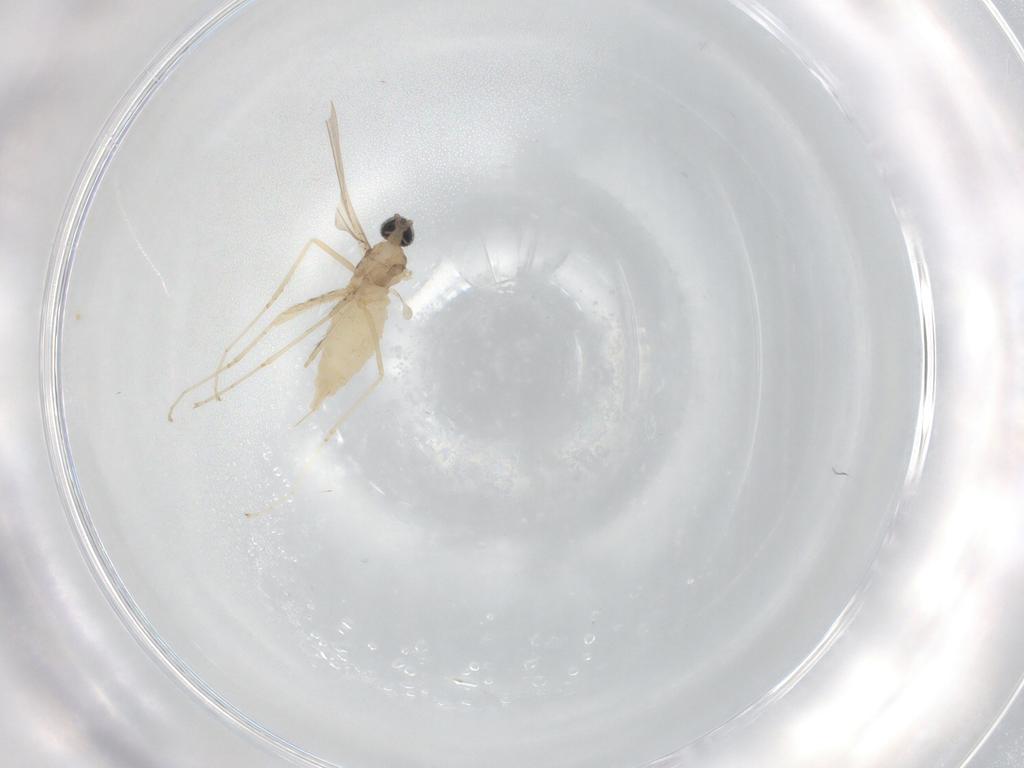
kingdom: Animalia
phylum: Arthropoda
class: Insecta
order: Diptera
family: Cecidomyiidae
